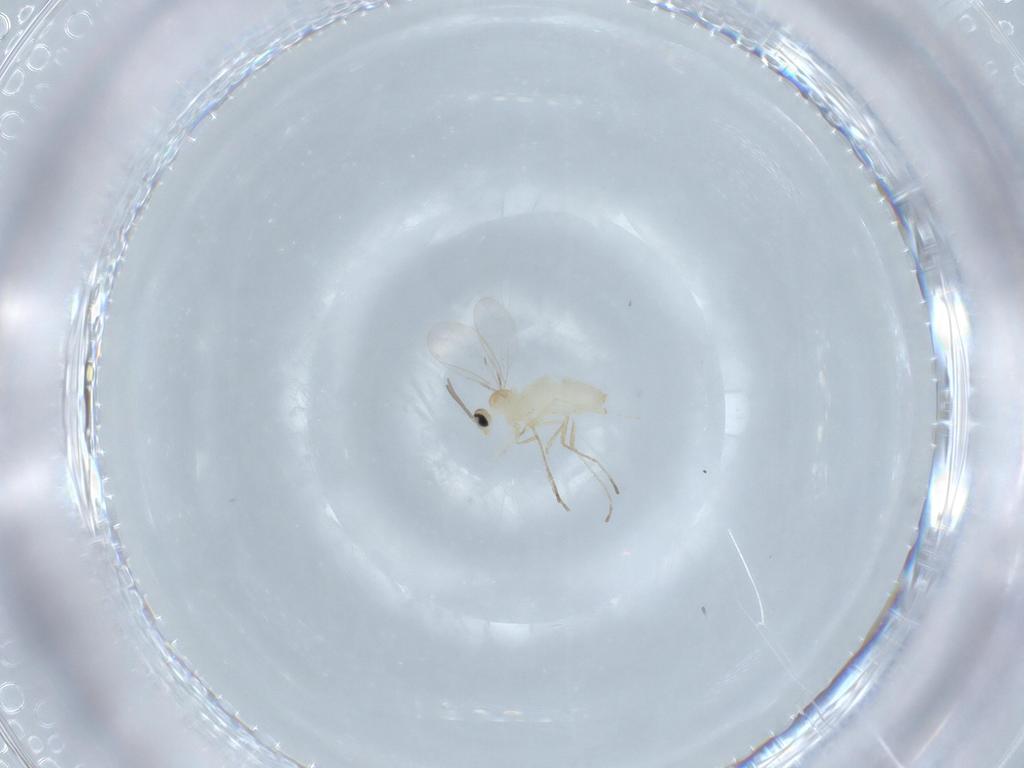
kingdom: Animalia
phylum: Arthropoda
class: Insecta
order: Diptera
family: Cecidomyiidae
